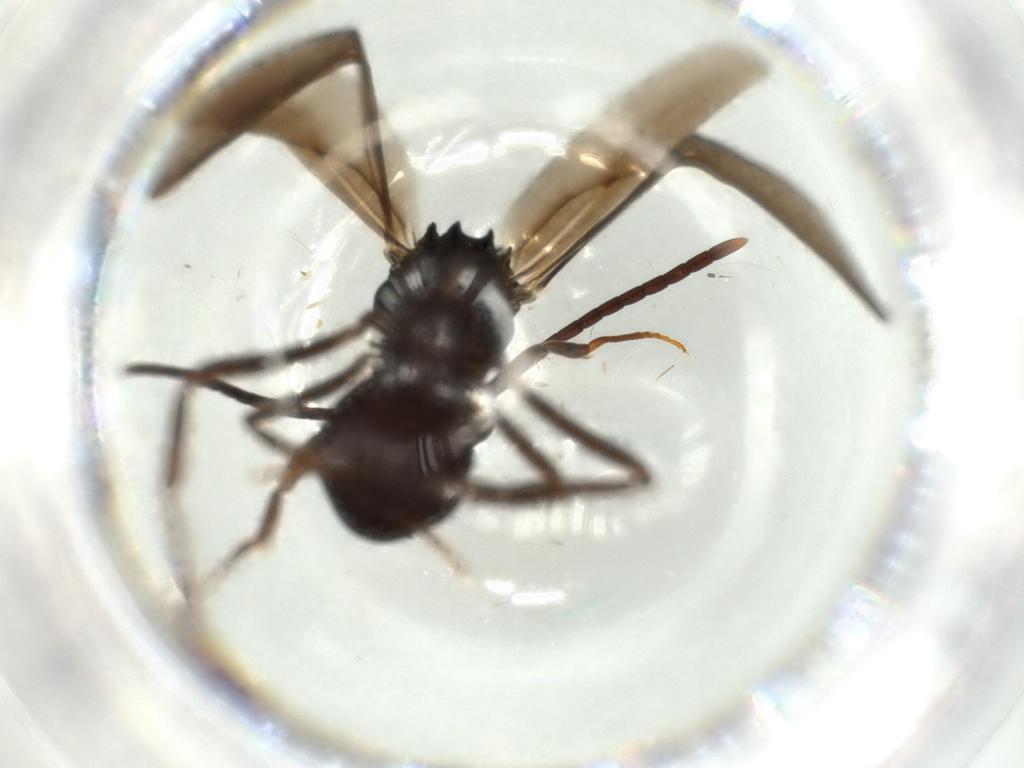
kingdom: Animalia
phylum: Arthropoda
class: Insecta
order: Hymenoptera
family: Formicidae
